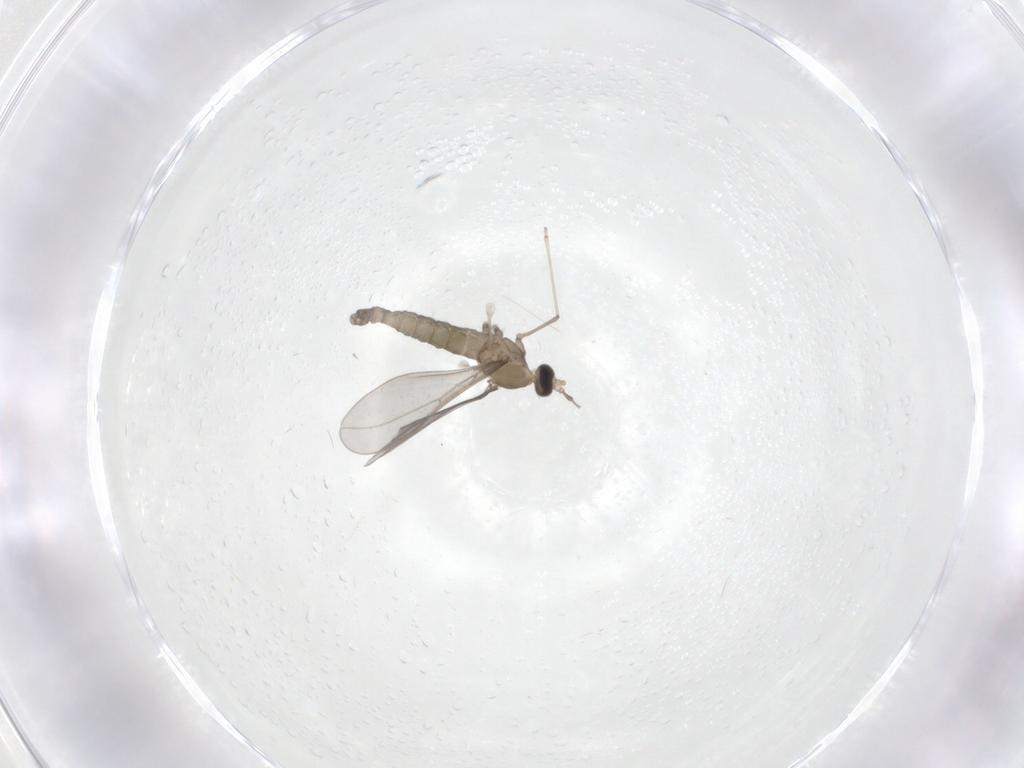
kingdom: Animalia
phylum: Arthropoda
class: Insecta
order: Diptera
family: Cecidomyiidae
